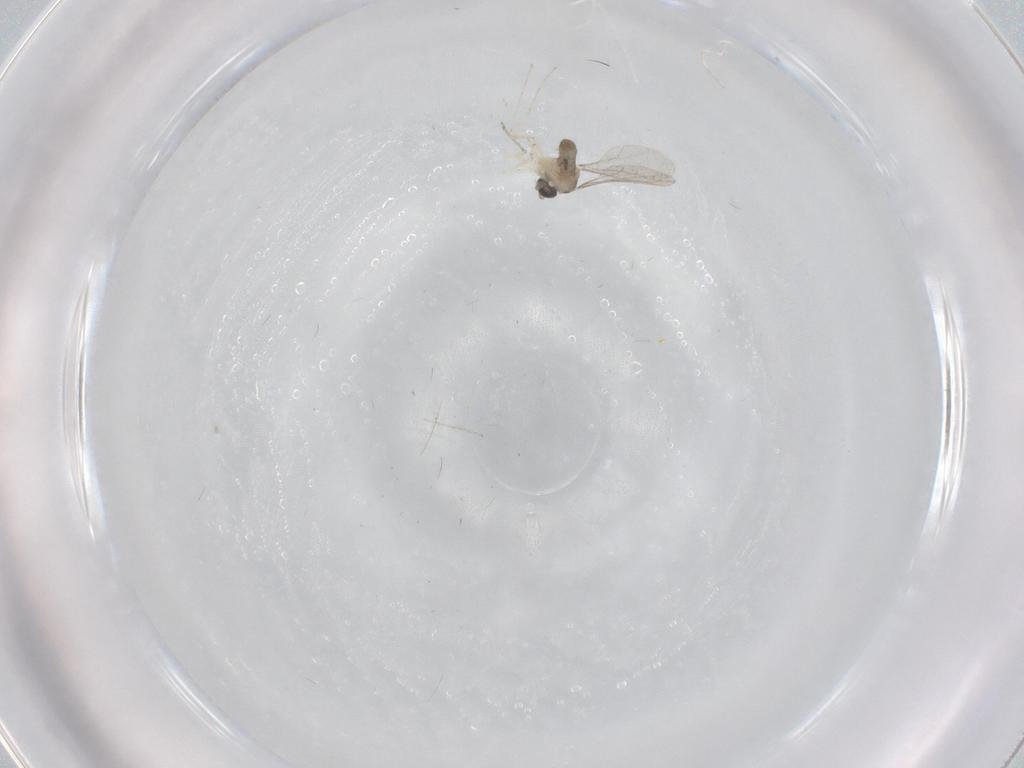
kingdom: Animalia
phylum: Arthropoda
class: Insecta
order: Diptera
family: Cecidomyiidae
